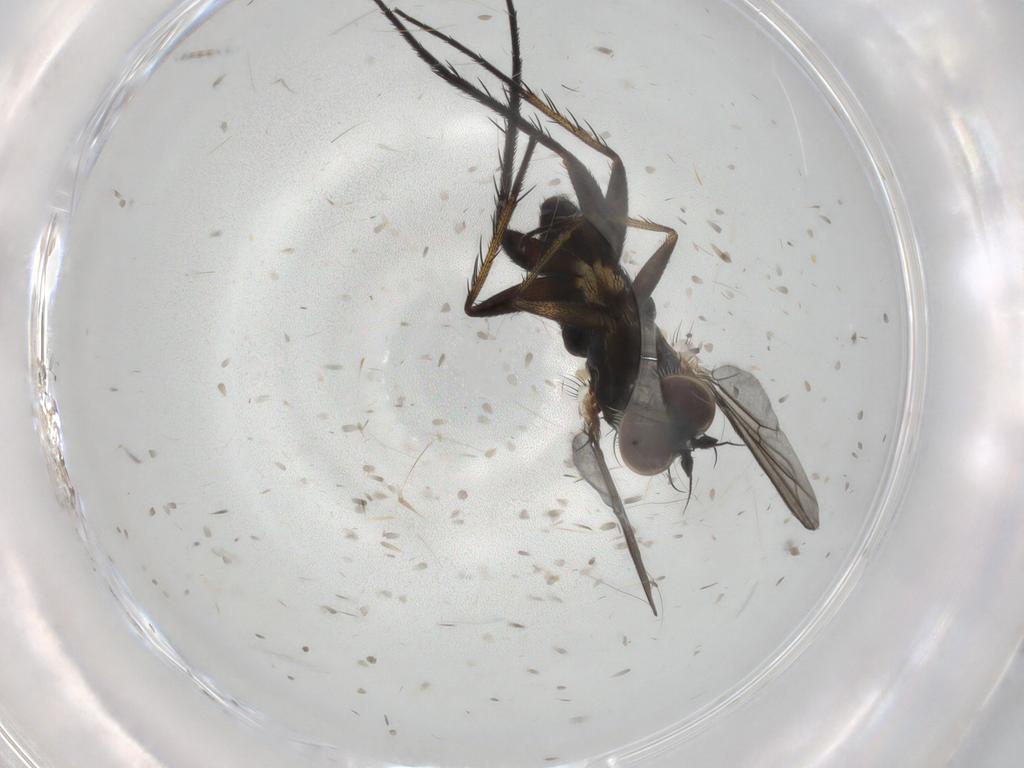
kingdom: Animalia
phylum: Arthropoda
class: Insecta
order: Diptera
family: Dolichopodidae
